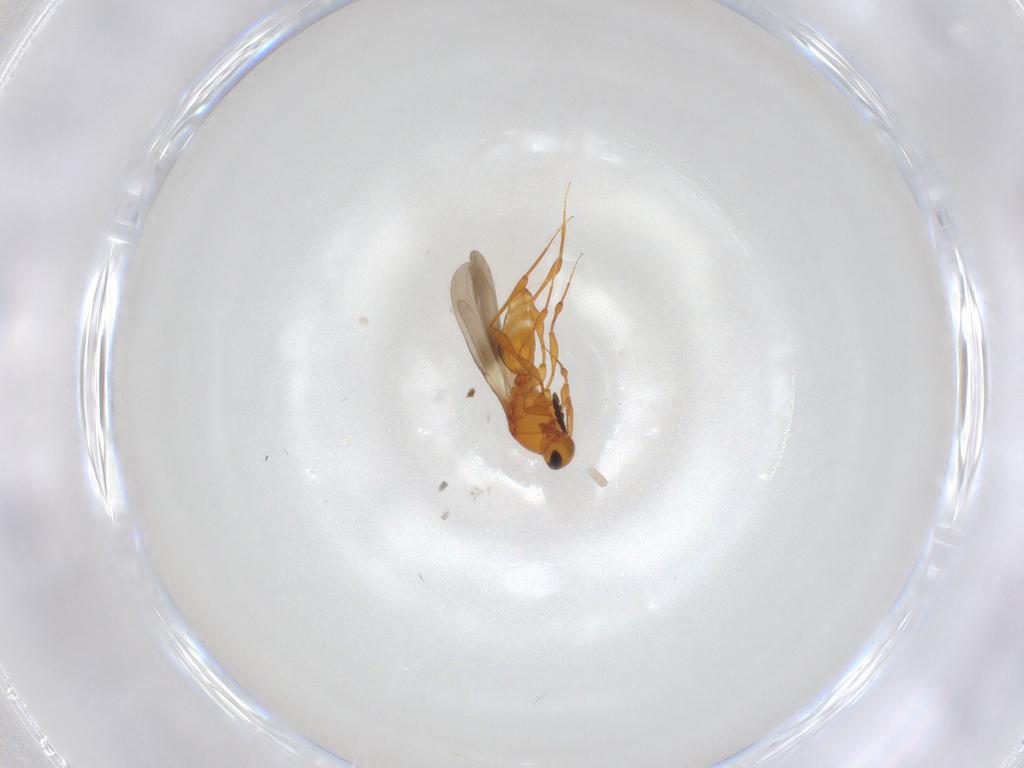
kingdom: Animalia
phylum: Arthropoda
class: Insecta
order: Hymenoptera
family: Platygastridae
